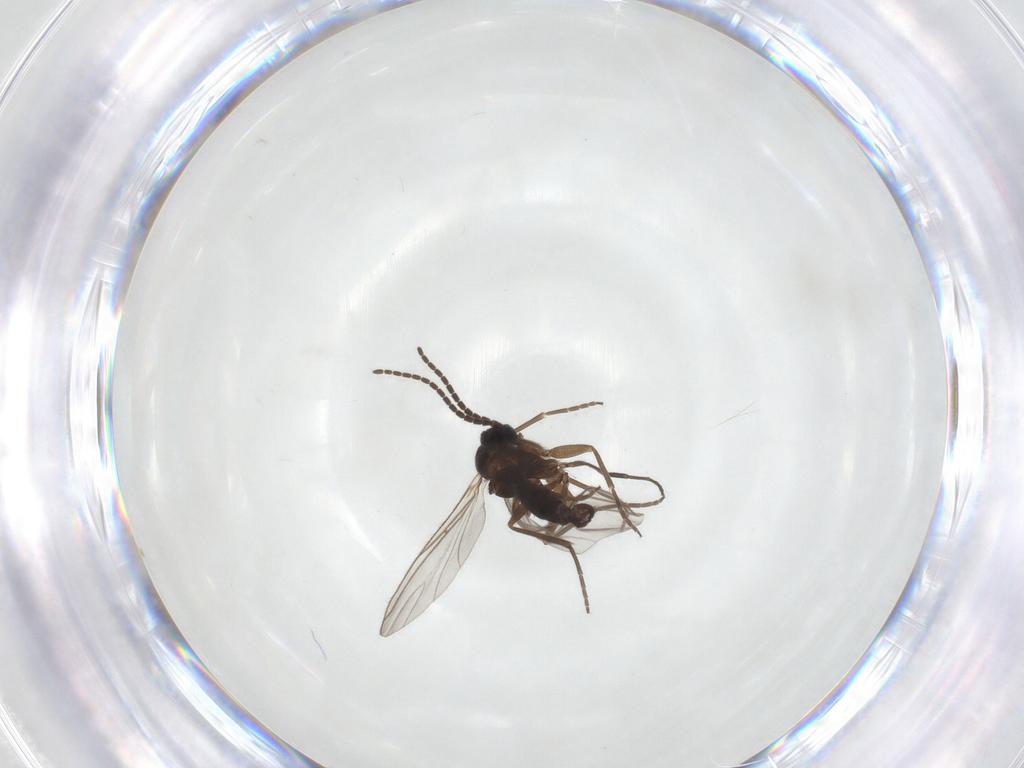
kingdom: Animalia
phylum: Arthropoda
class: Insecta
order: Diptera
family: Sciaridae
